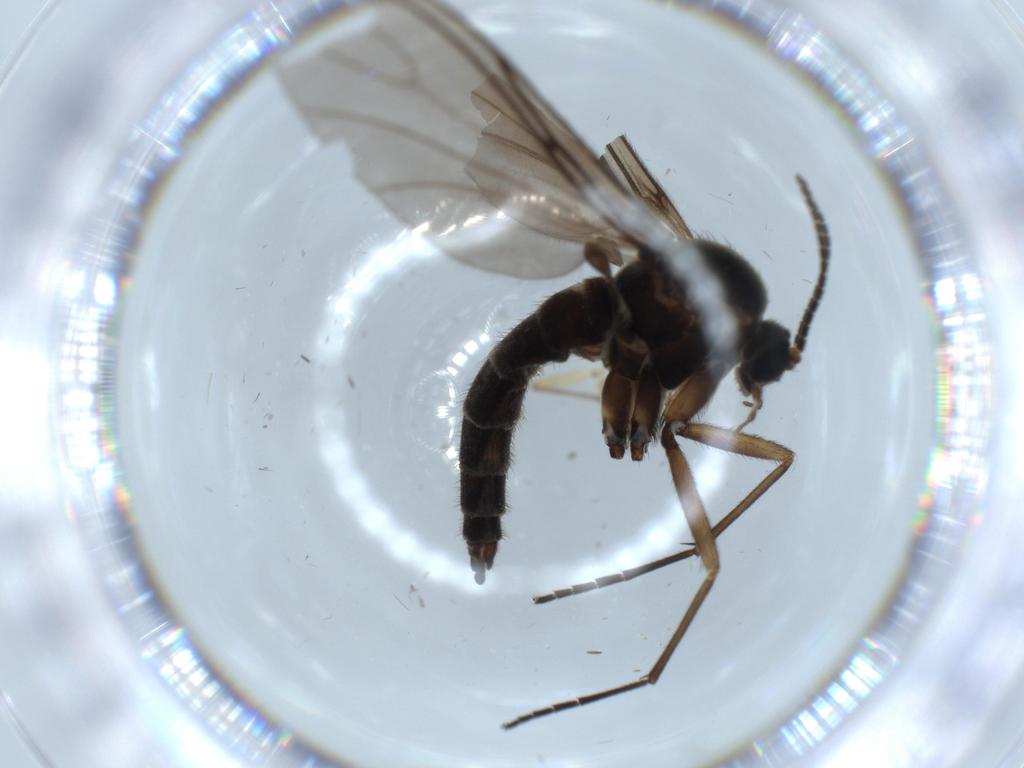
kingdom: Animalia
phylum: Arthropoda
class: Insecta
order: Diptera
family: Sciaridae
